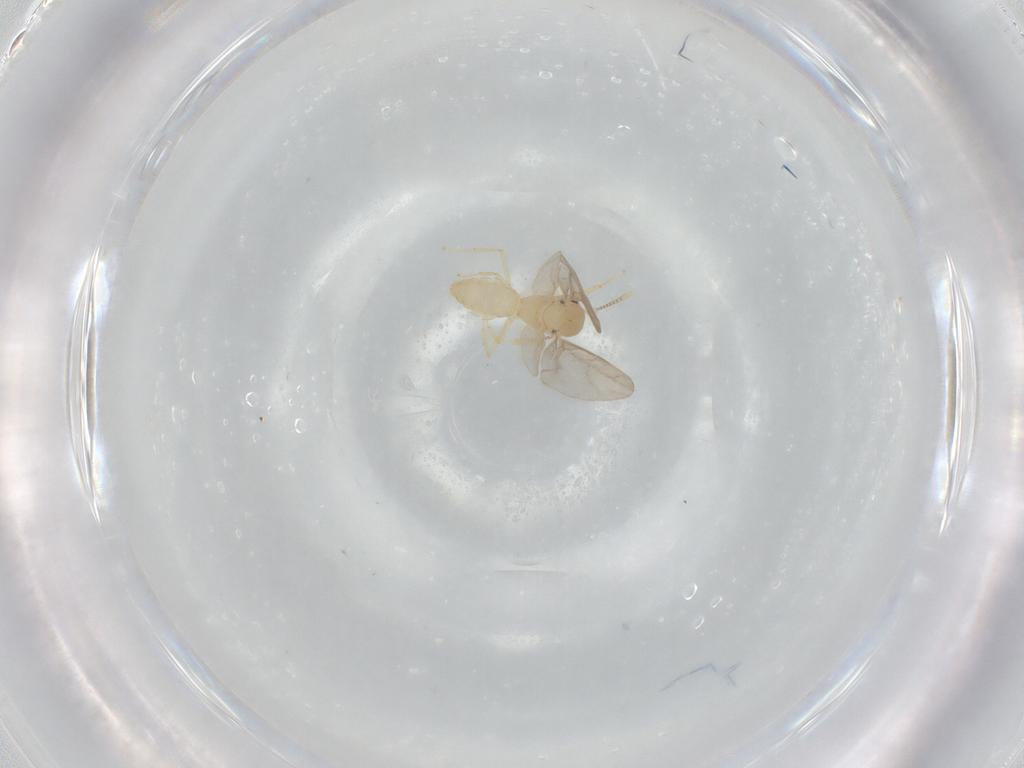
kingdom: Animalia
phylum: Arthropoda
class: Insecta
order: Hymenoptera
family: Formicidae
